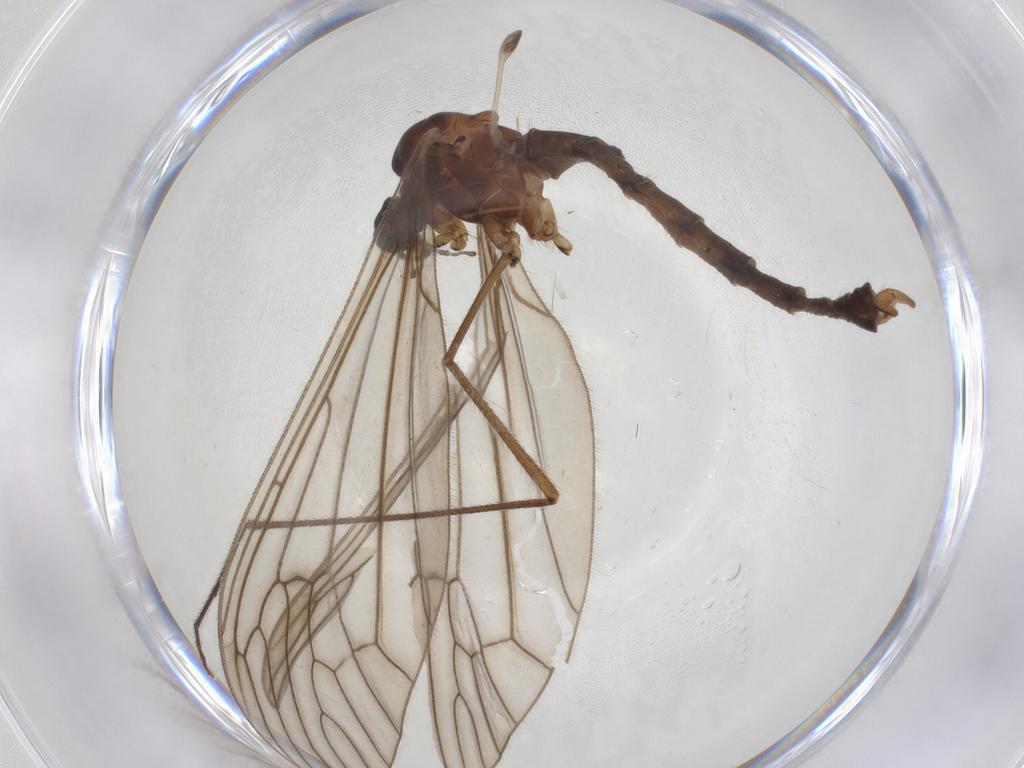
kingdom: Animalia
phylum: Arthropoda
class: Insecta
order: Diptera
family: Trichoceridae
